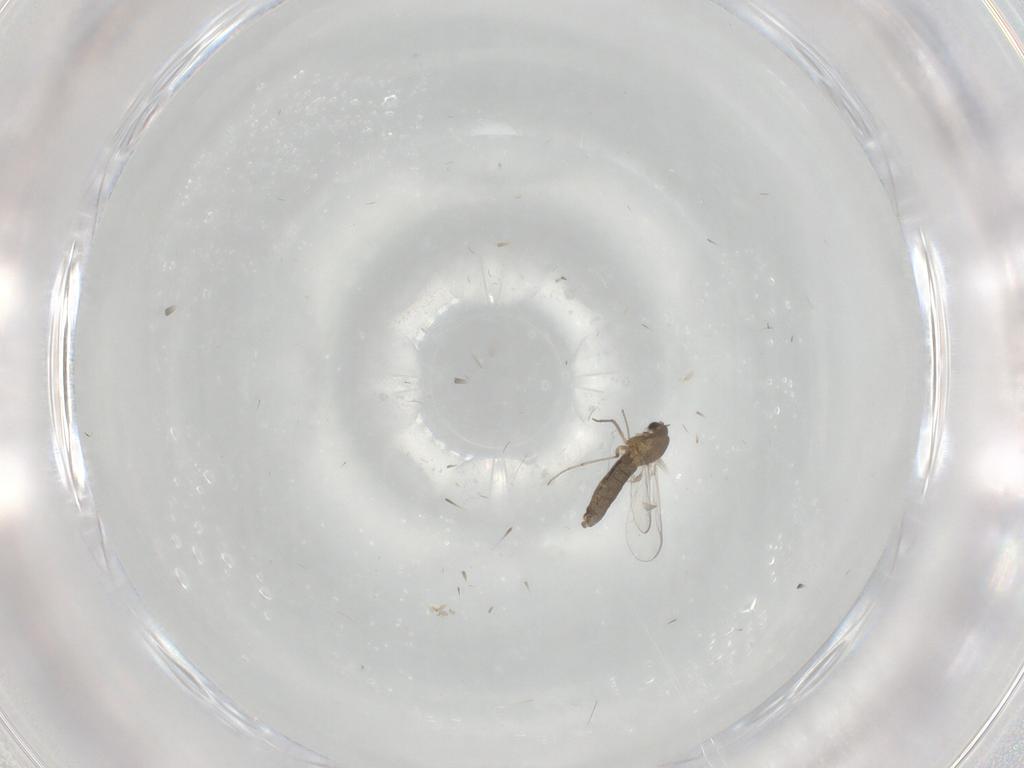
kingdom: Animalia
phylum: Arthropoda
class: Insecta
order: Diptera
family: Chironomidae
